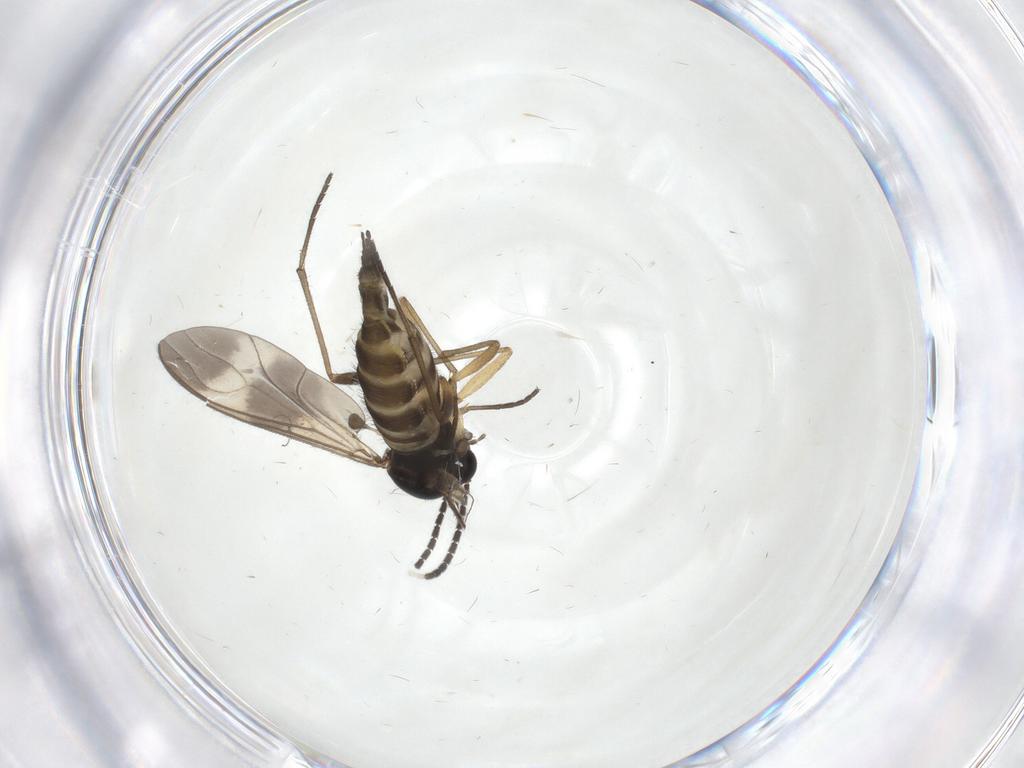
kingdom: Animalia
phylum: Arthropoda
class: Insecta
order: Diptera
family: Sciaridae
